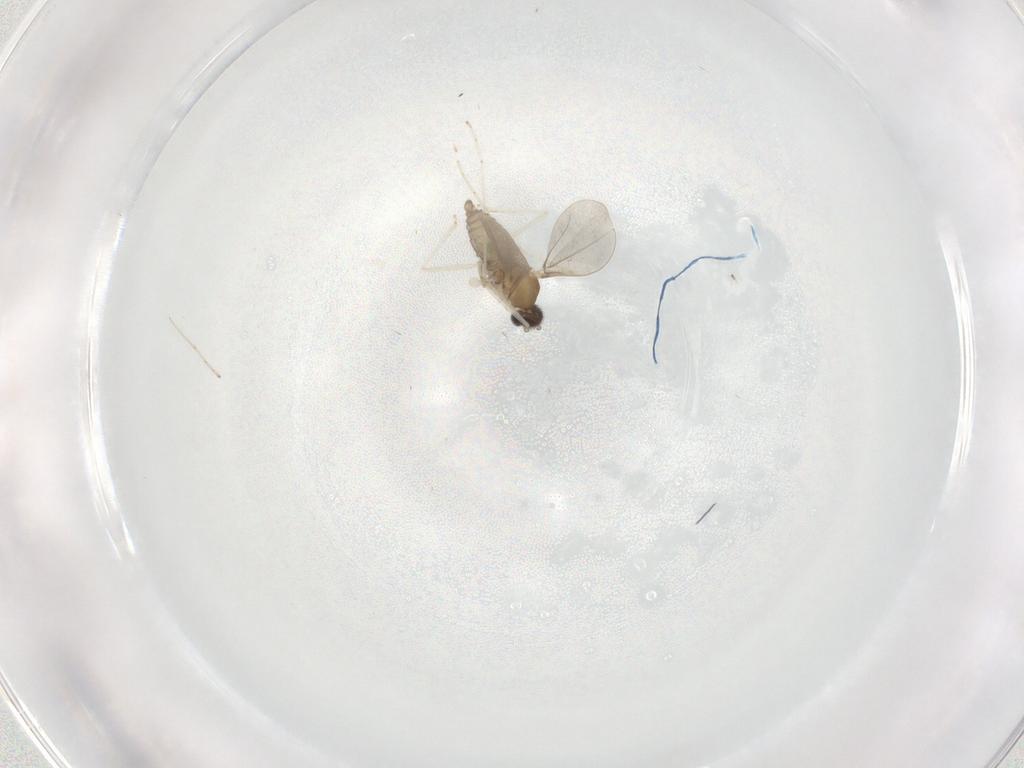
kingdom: Animalia
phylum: Arthropoda
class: Insecta
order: Diptera
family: Cecidomyiidae
